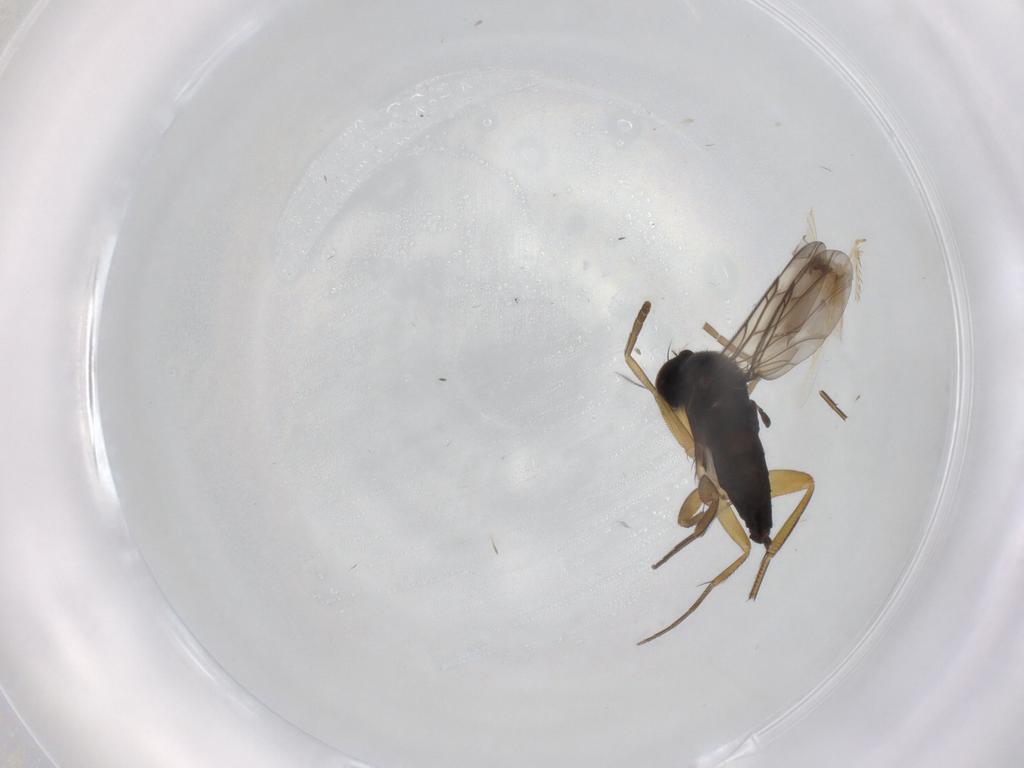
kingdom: Animalia
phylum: Arthropoda
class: Insecta
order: Diptera
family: Phoridae
